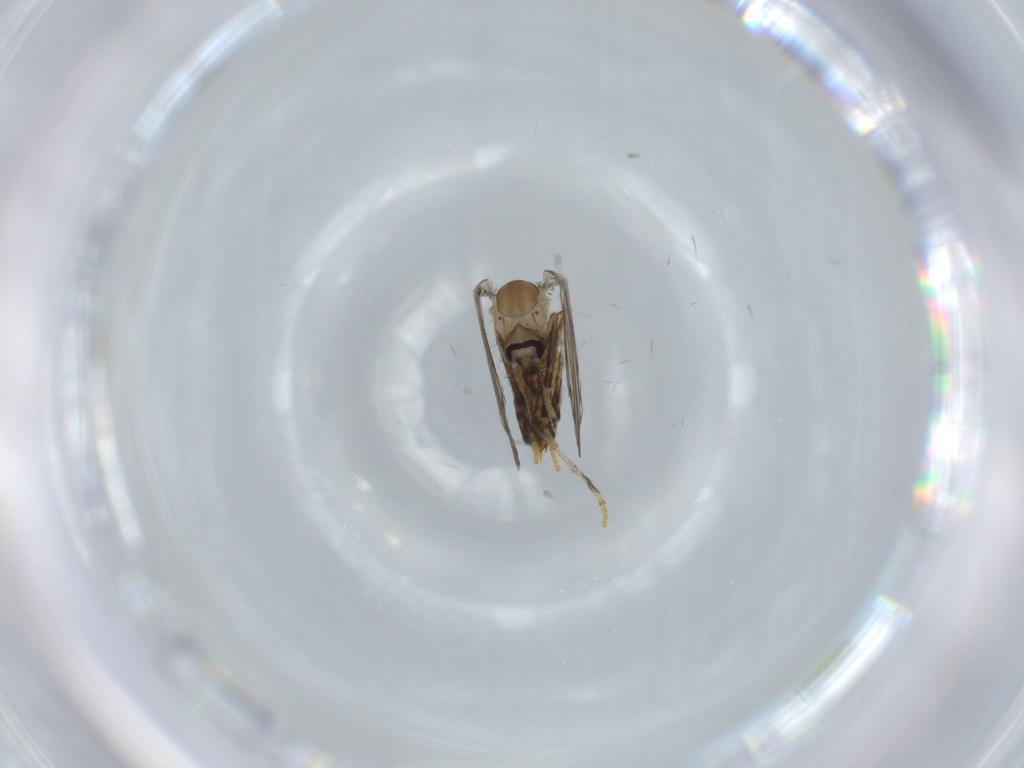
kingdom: Animalia
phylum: Arthropoda
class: Insecta
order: Diptera
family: Psychodidae
